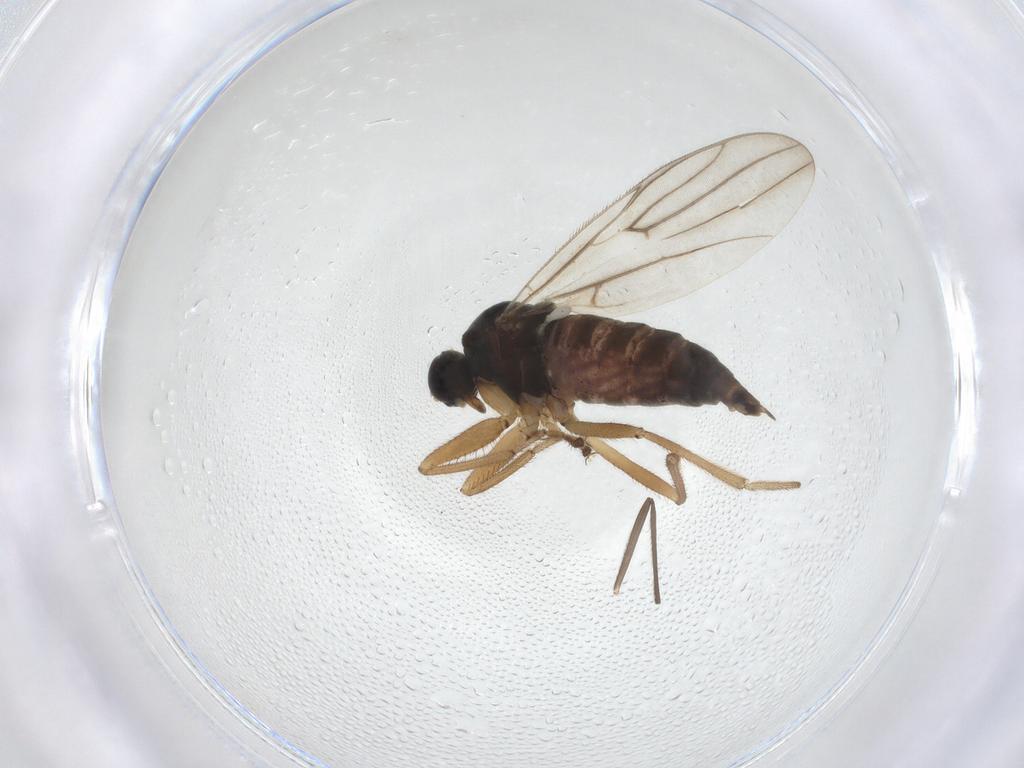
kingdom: Animalia
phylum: Arthropoda
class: Insecta
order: Diptera
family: Hybotidae
